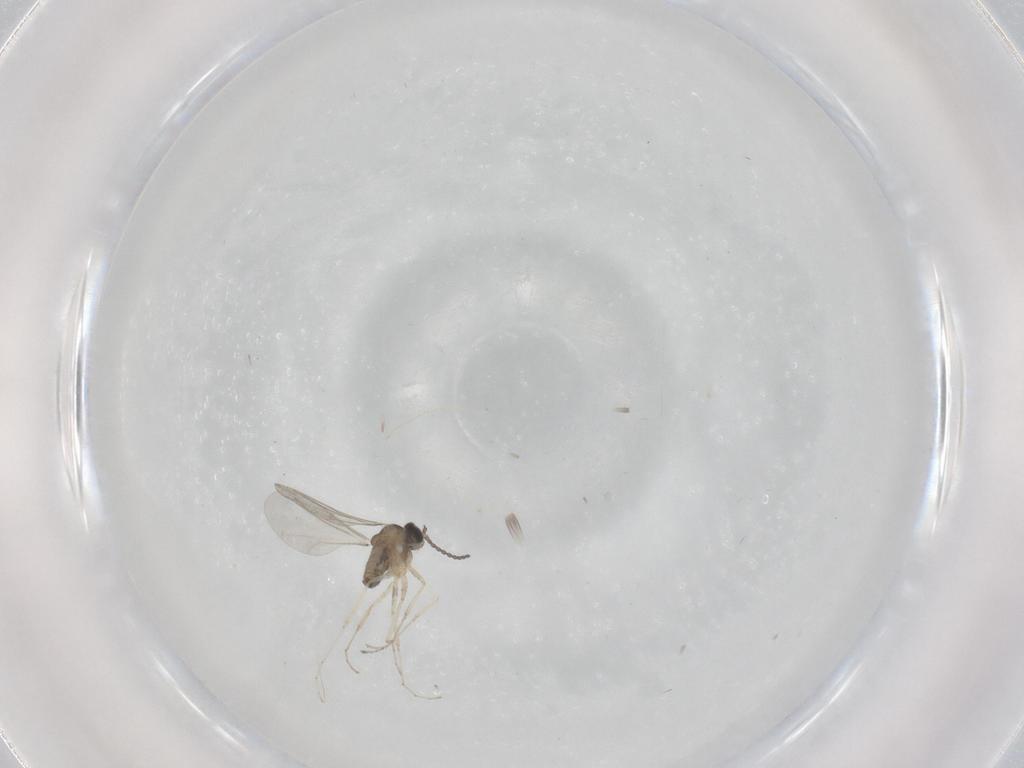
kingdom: Animalia
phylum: Arthropoda
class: Insecta
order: Diptera
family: Cecidomyiidae
